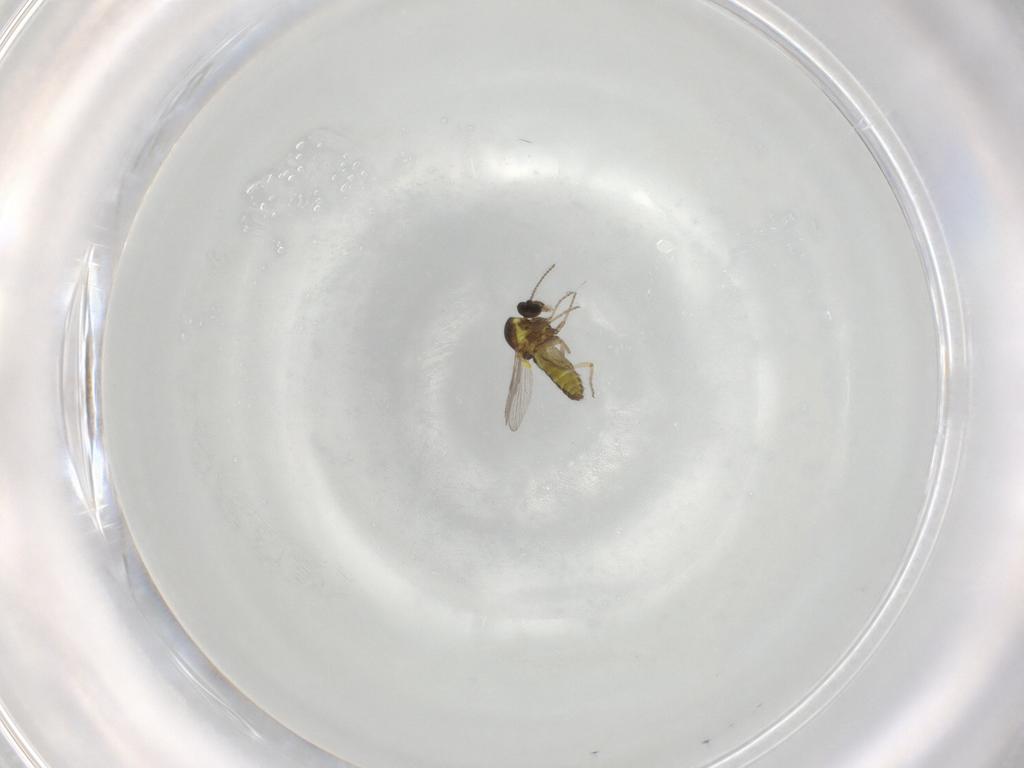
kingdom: Animalia
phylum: Arthropoda
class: Insecta
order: Diptera
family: Ceratopogonidae
